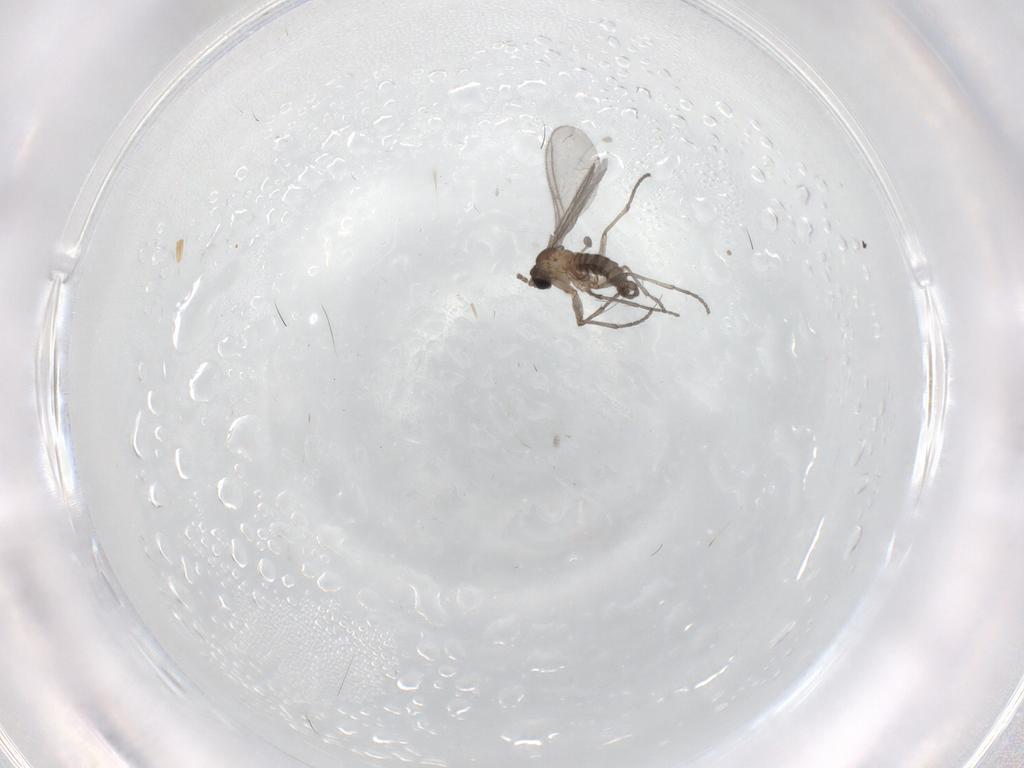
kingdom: Animalia
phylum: Arthropoda
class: Insecta
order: Diptera
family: Sciaridae
